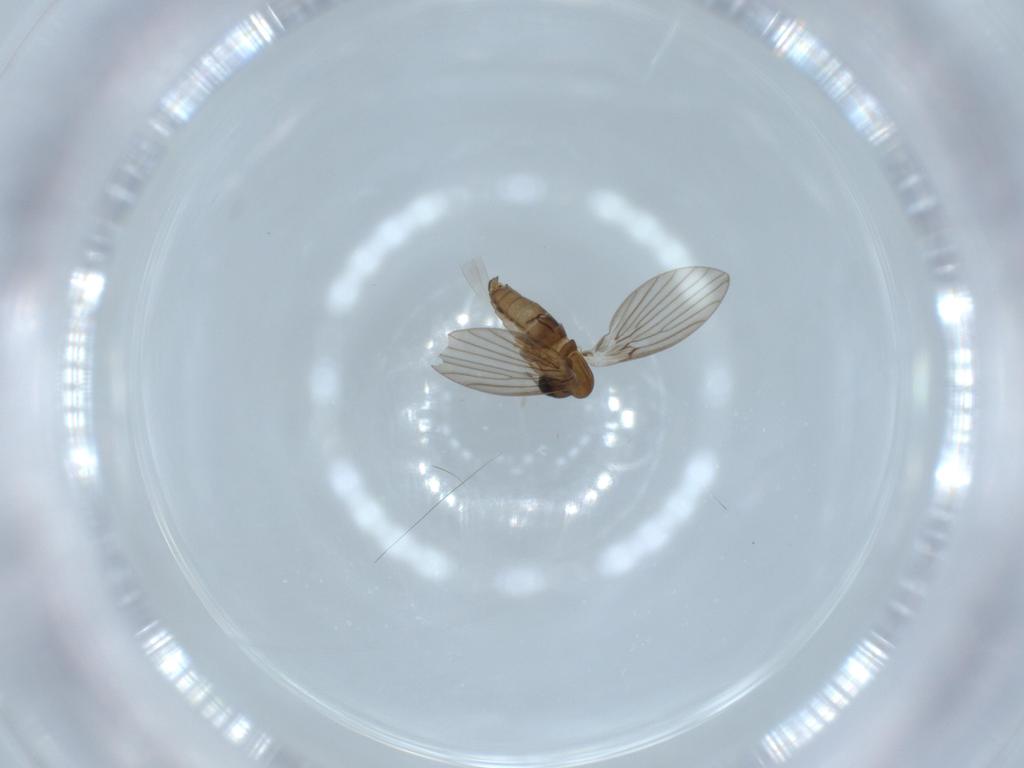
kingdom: Animalia
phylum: Arthropoda
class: Insecta
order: Diptera
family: Psychodidae
